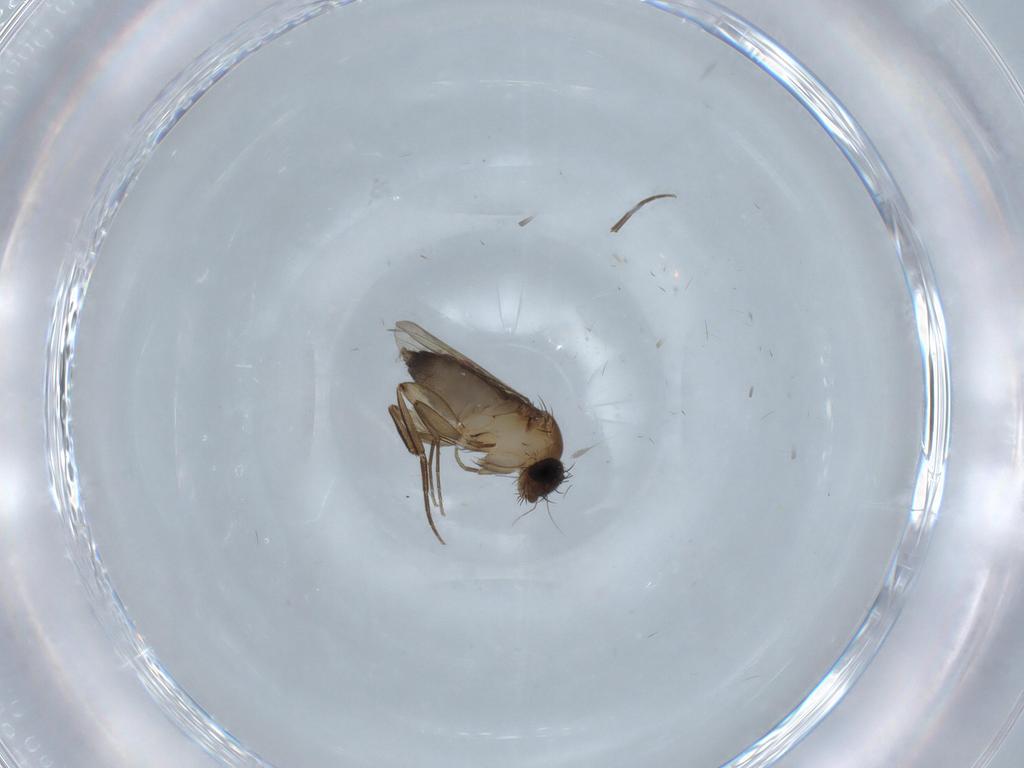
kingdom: Animalia
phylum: Arthropoda
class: Insecta
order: Diptera
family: Phoridae
